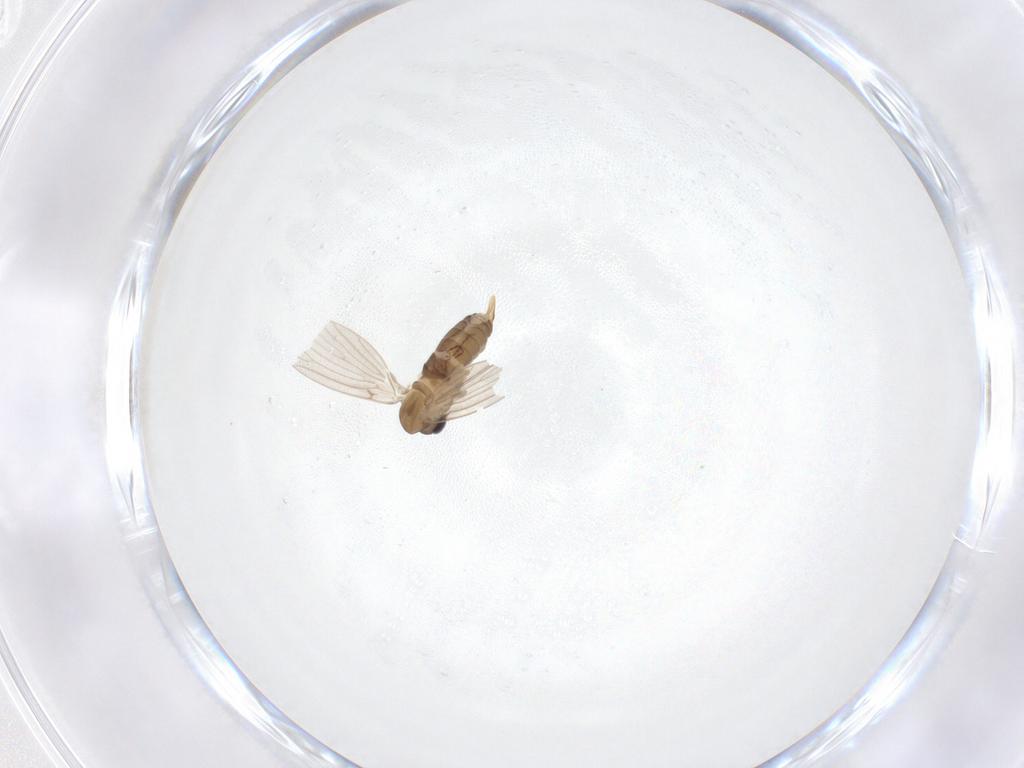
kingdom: Animalia
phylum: Arthropoda
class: Insecta
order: Diptera
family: Psychodidae
